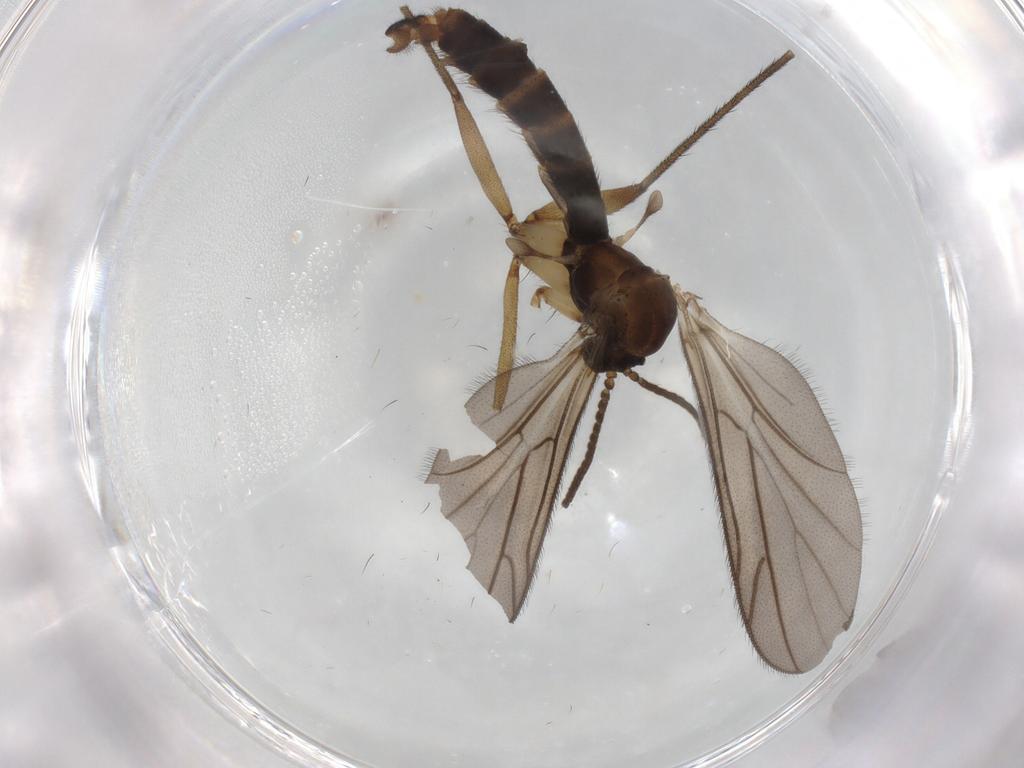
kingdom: Animalia
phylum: Arthropoda
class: Insecta
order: Diptera
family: Ditomyiidae
